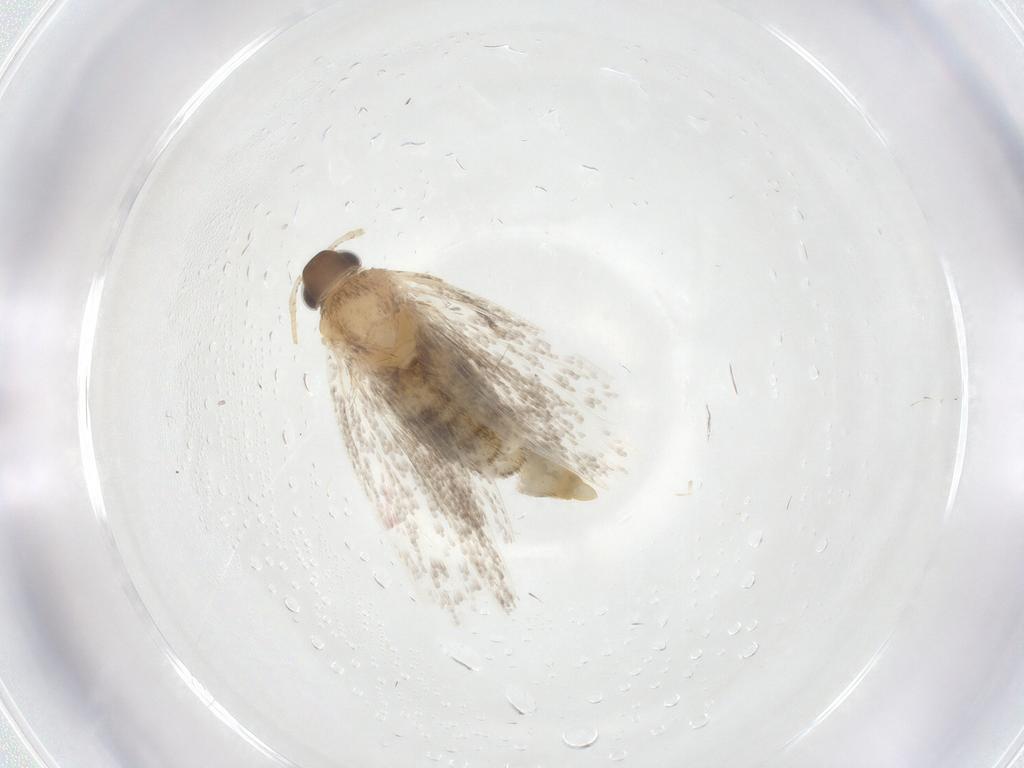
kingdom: Animalia
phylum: Arthropoda
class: Insecta
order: Lepidoptera
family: Oecophoridae
